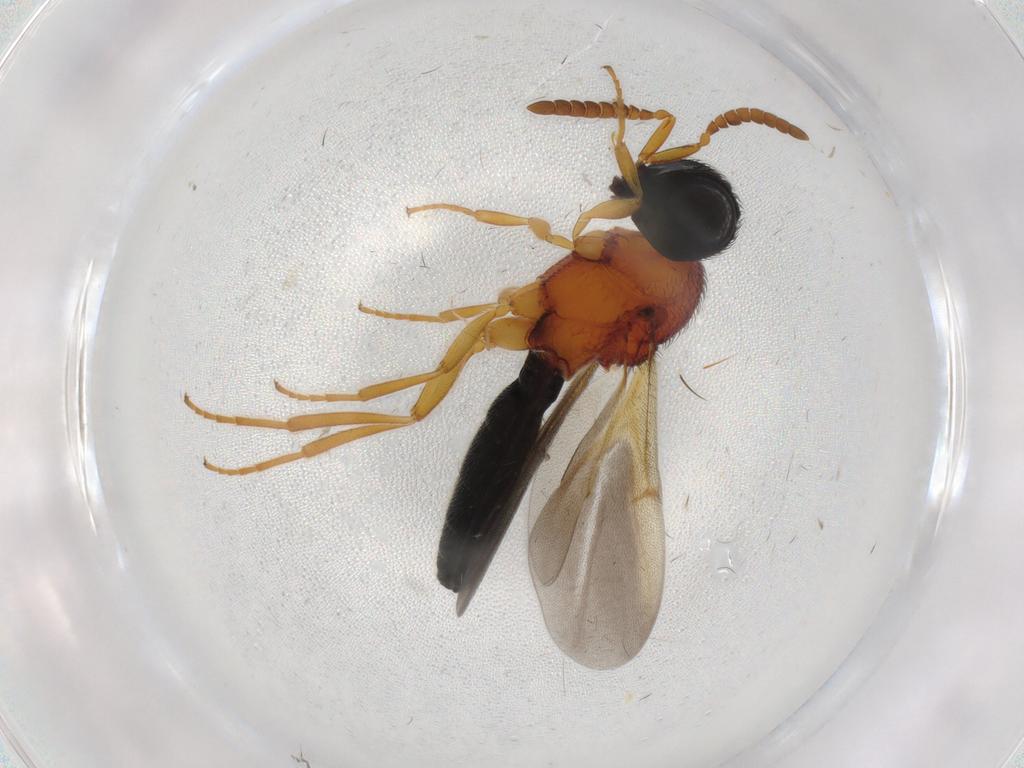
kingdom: Animalia
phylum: Arthropoda
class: Insecta
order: Hymenoptera
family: Scelionidae
